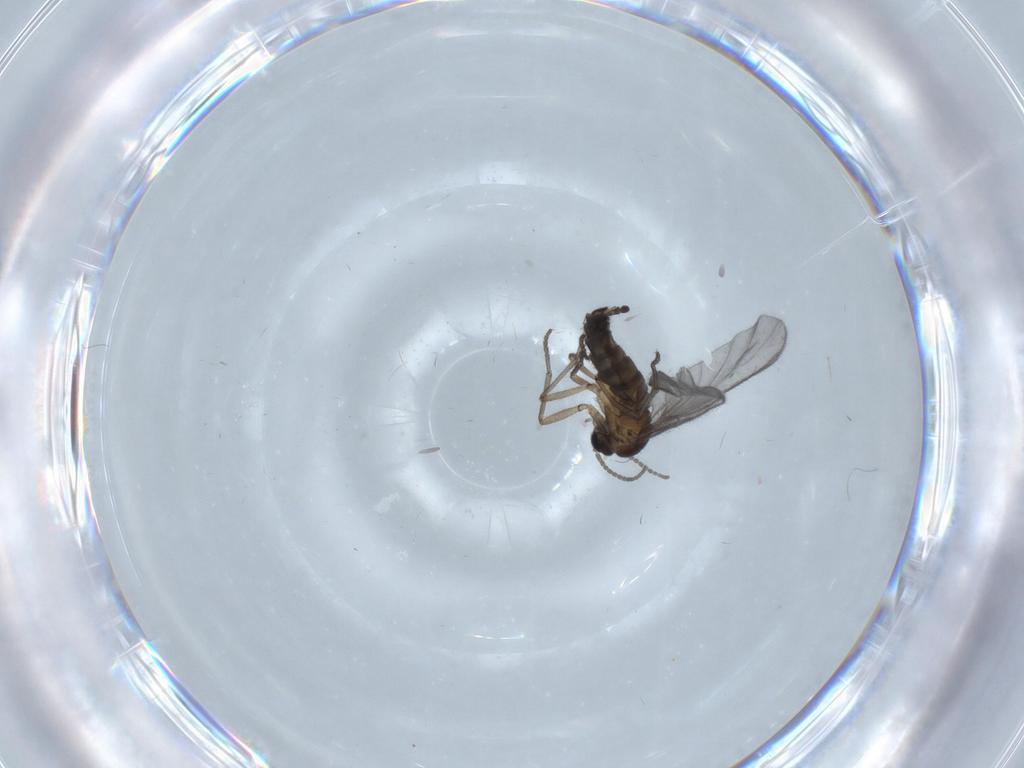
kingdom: Animalia
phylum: Arthropoda
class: Insecta
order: Diptera
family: Sciaridae
